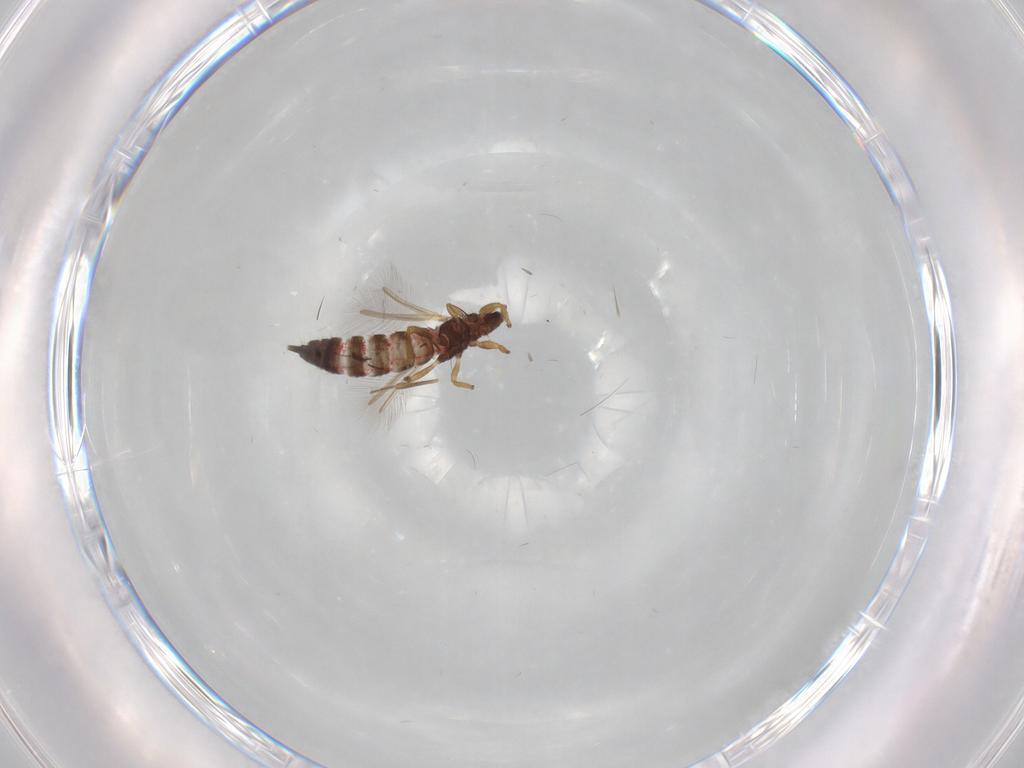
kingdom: Animalia
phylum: Arthropoda
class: Insecta
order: Thysanoptera
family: Phlaeothripidae
